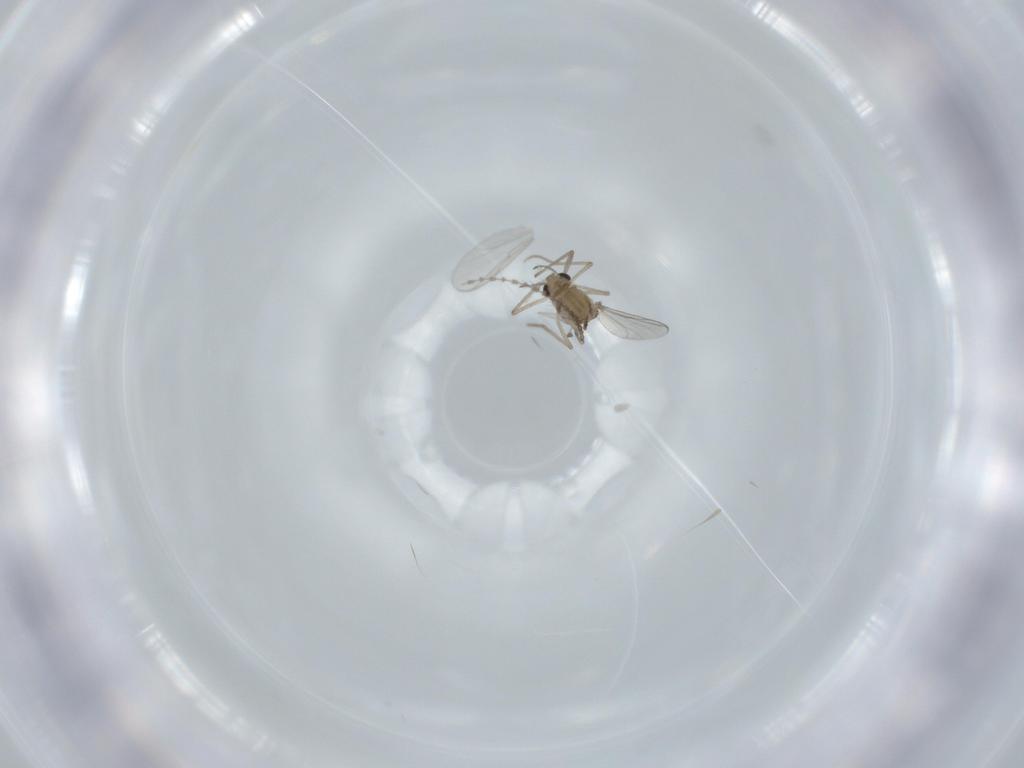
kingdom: Animalia
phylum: Arthropoda
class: Insecta
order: Diptera
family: Chironomidae
